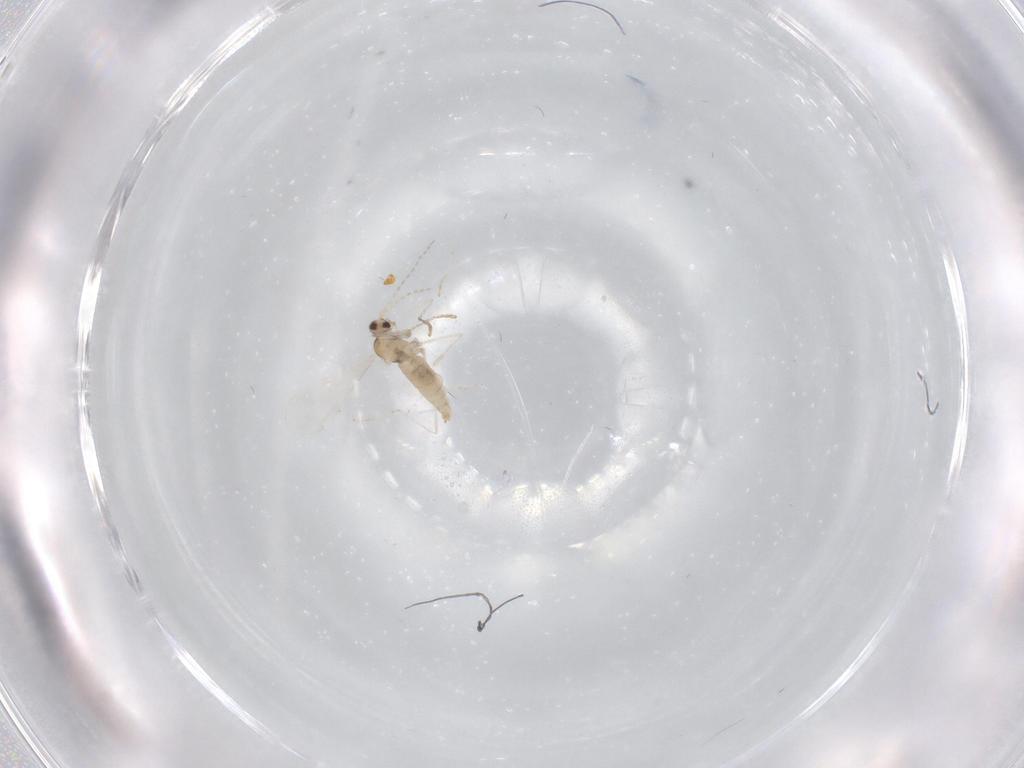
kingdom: Animalia
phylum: Arthropoda
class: Insecta
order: Diptera
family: Cecidomyiidae
